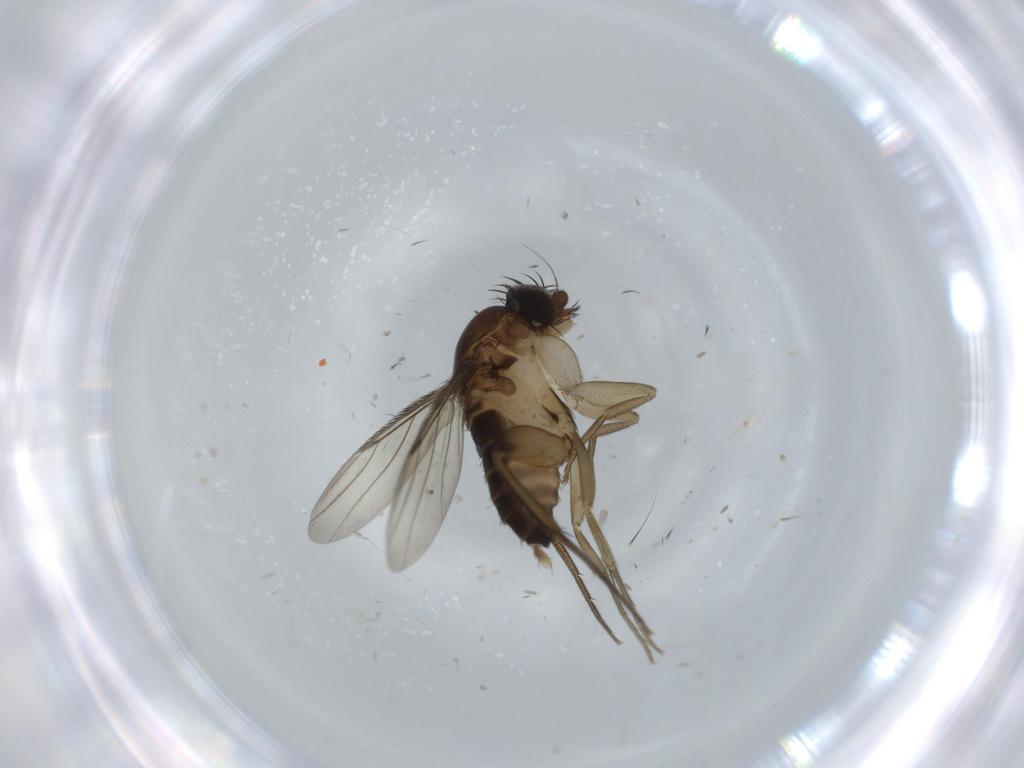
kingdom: Animalia
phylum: Arthropoda
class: Insecta
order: Diptera
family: Phoridae
